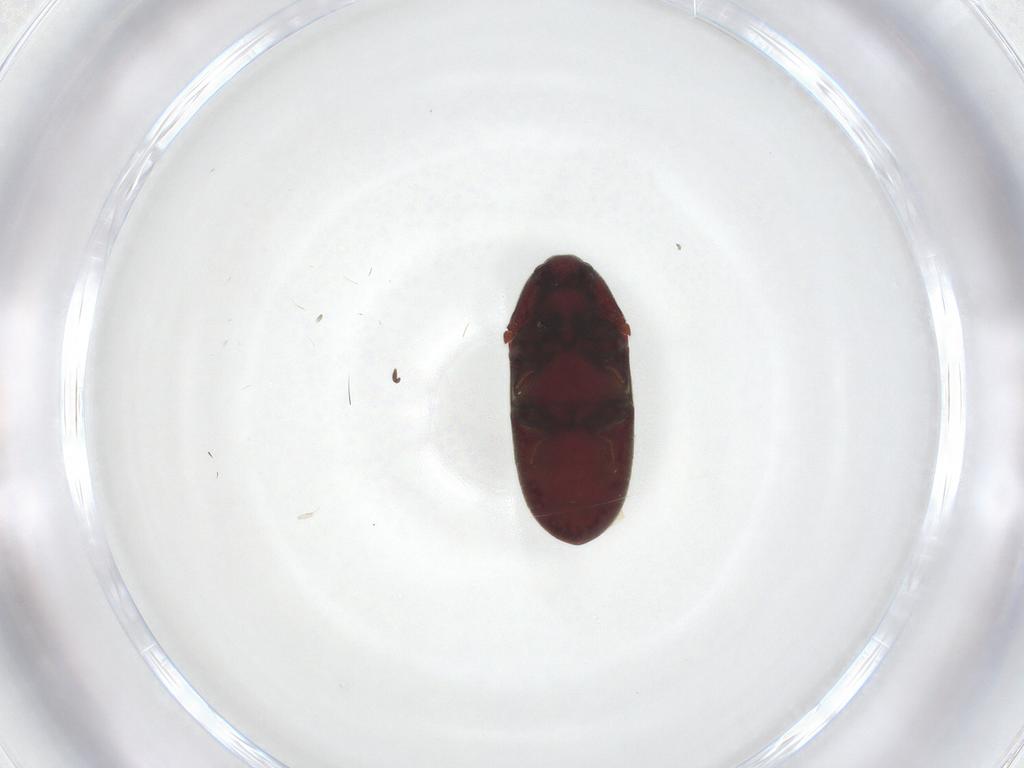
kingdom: Animalia
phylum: Arthropoda
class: Insecta
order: Coleoptera
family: Throscidae
